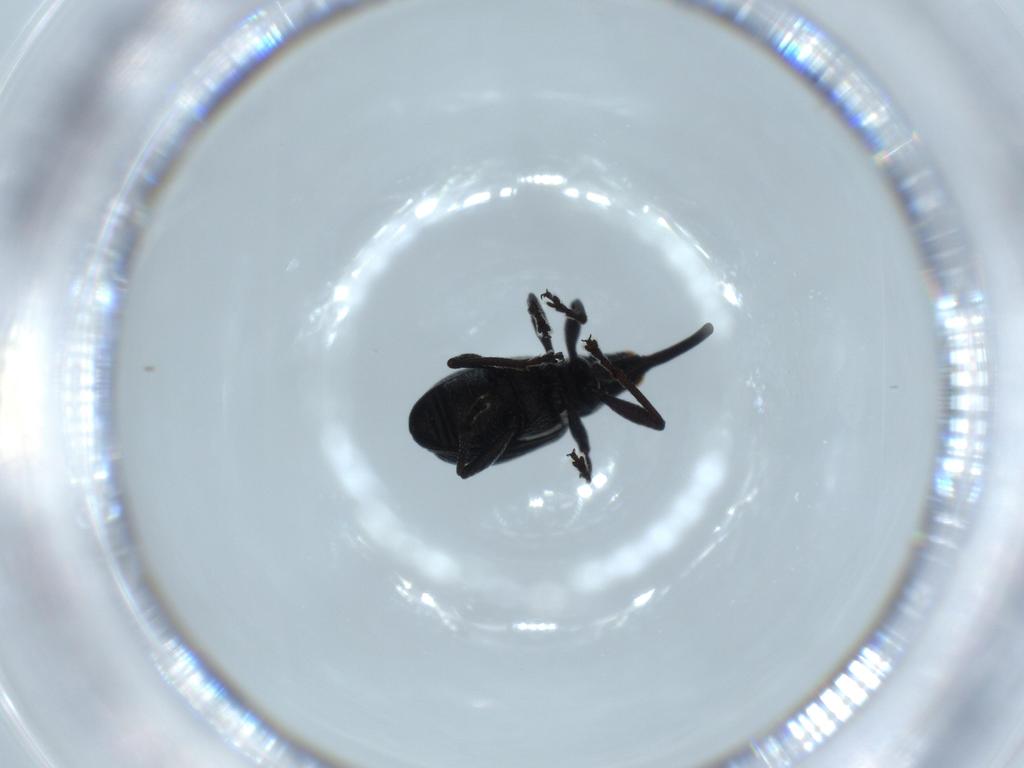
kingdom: Animalia
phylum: Arthropoda
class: Insecta
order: Coleoptera
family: Brentidae
